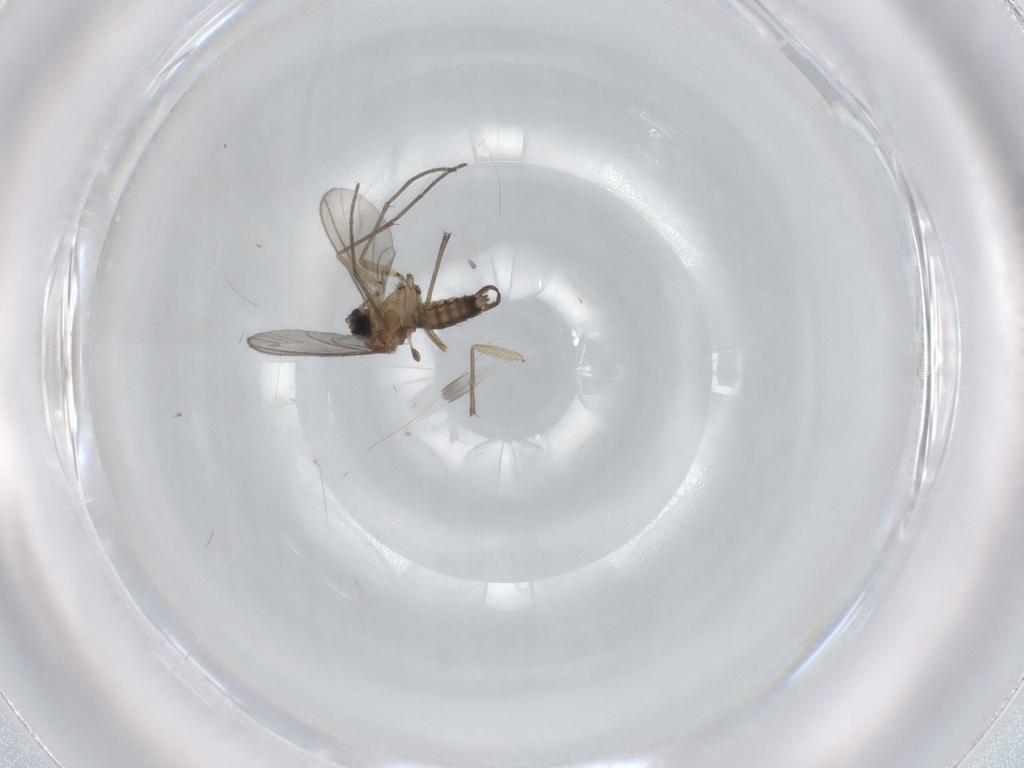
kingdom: Animalia
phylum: Arthropoda
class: Insecta
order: Diptera
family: Sciaridae
